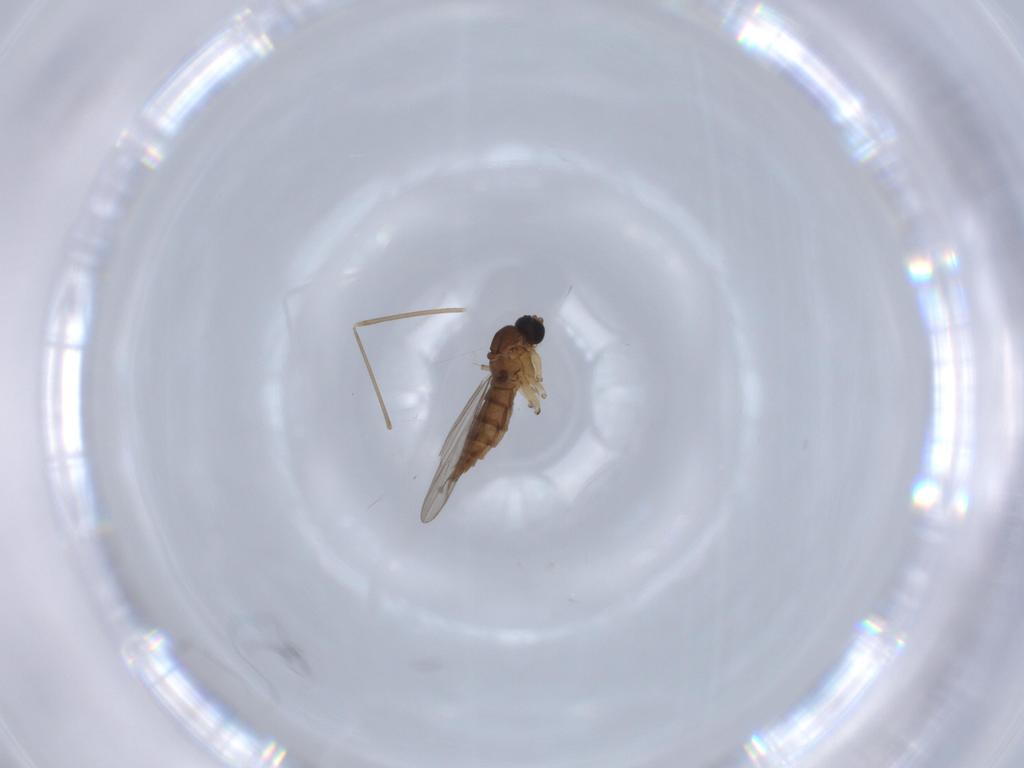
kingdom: Animalia
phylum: Arthropoda
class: Insecta
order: Diptera
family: Sciaridae
